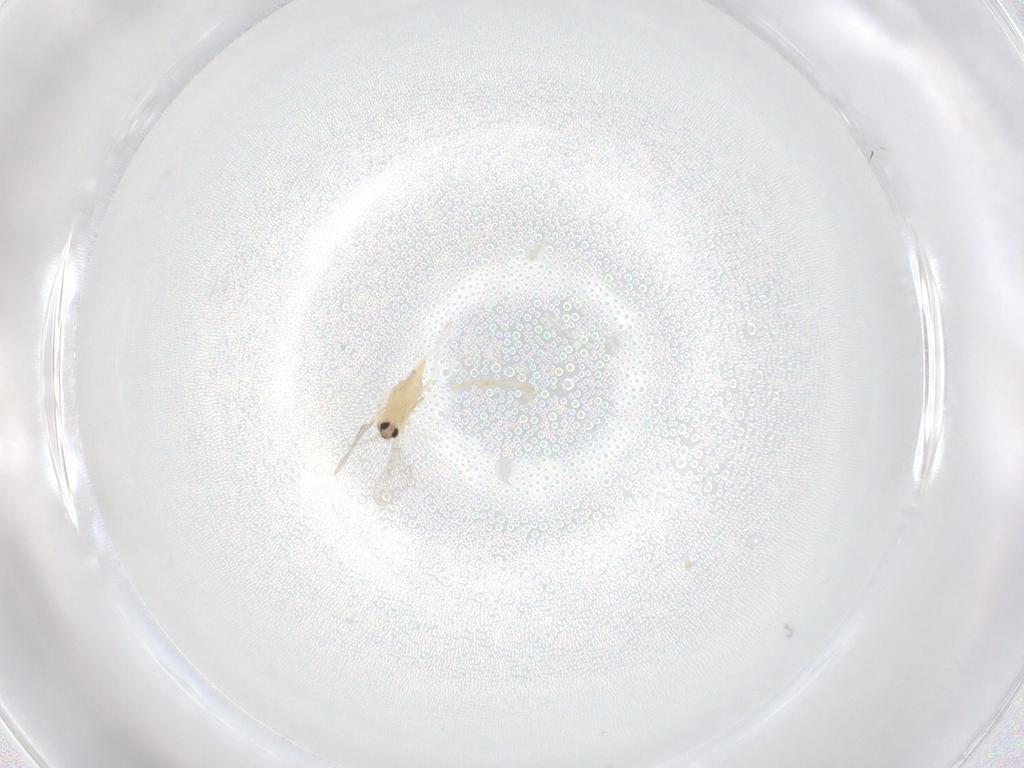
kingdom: Animalia
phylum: Arthropoda
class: Insecta
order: Diptera
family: Cecidomyiidae
